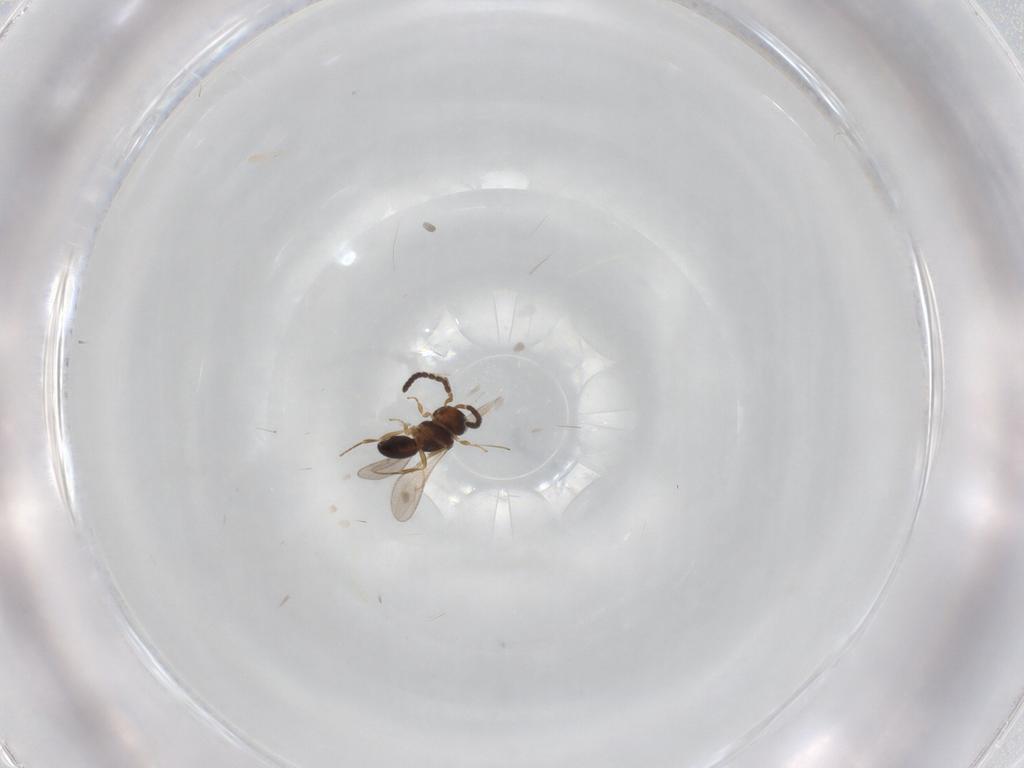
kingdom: Animalia
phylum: Arthropoda
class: Insecta
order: Hymenoptera
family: Scelionidae
